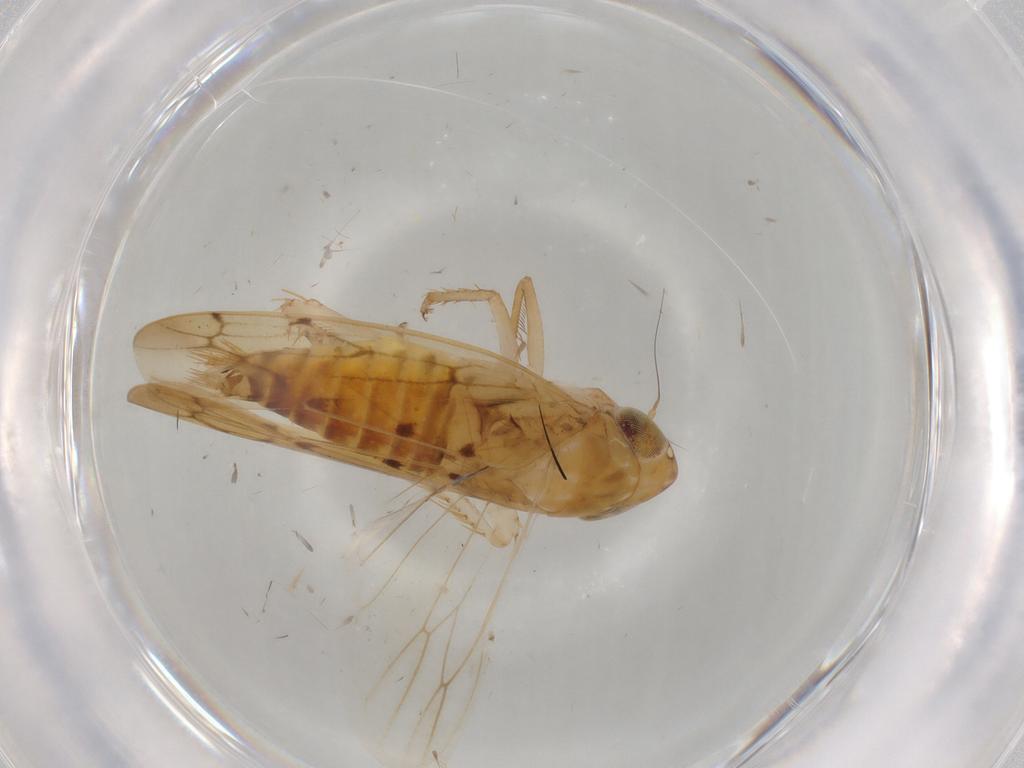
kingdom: Animalia
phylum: Arthropoda
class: Insecta
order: Hemiptera
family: Cicadellidae
